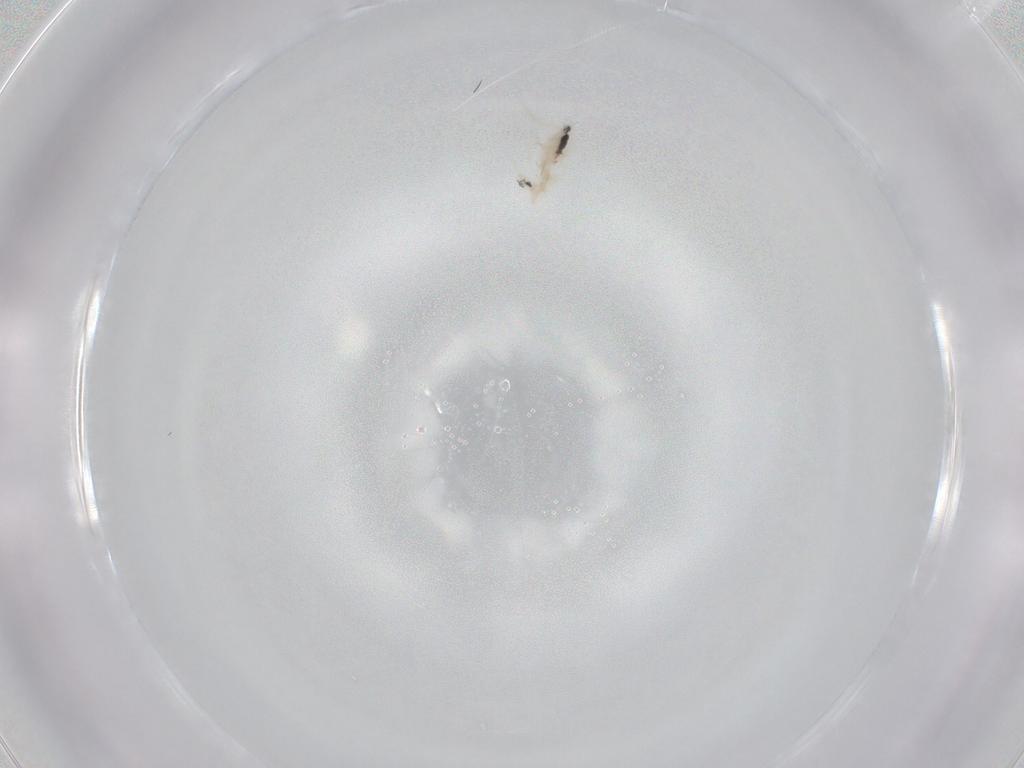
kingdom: Animalia
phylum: Arthropoda
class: Collembola
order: Entomobryomorpha
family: Entomobryidae
